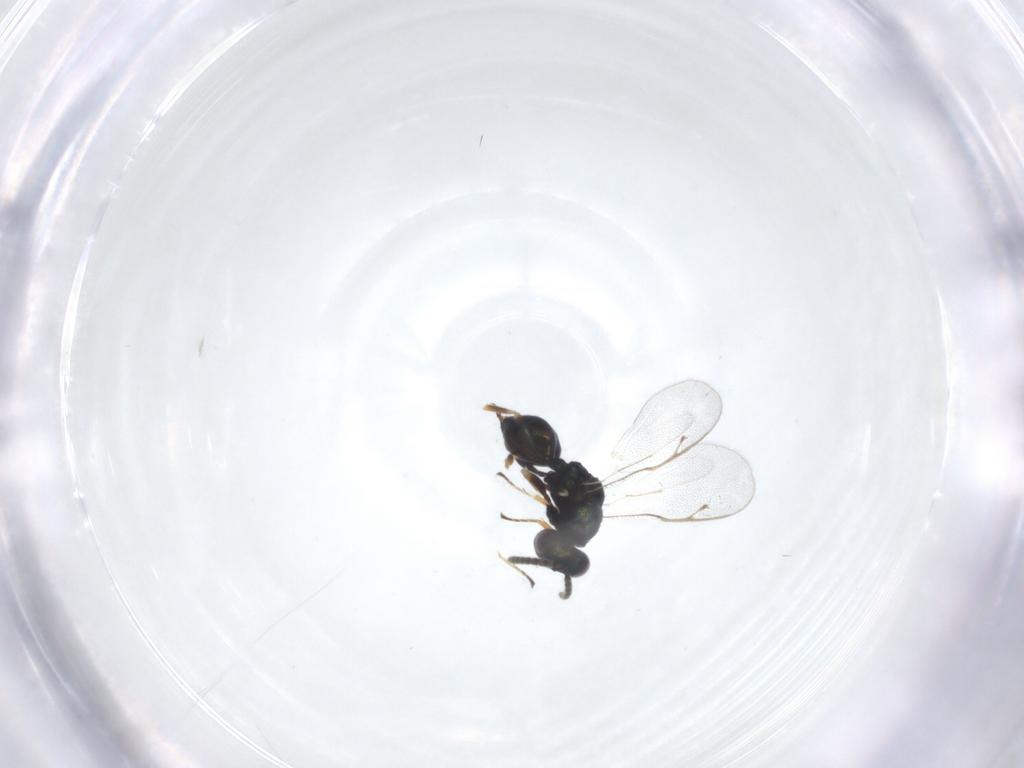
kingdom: Animalia
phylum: Arthropoda
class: Insecta
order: Hymenoptera
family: Pteromalidae
